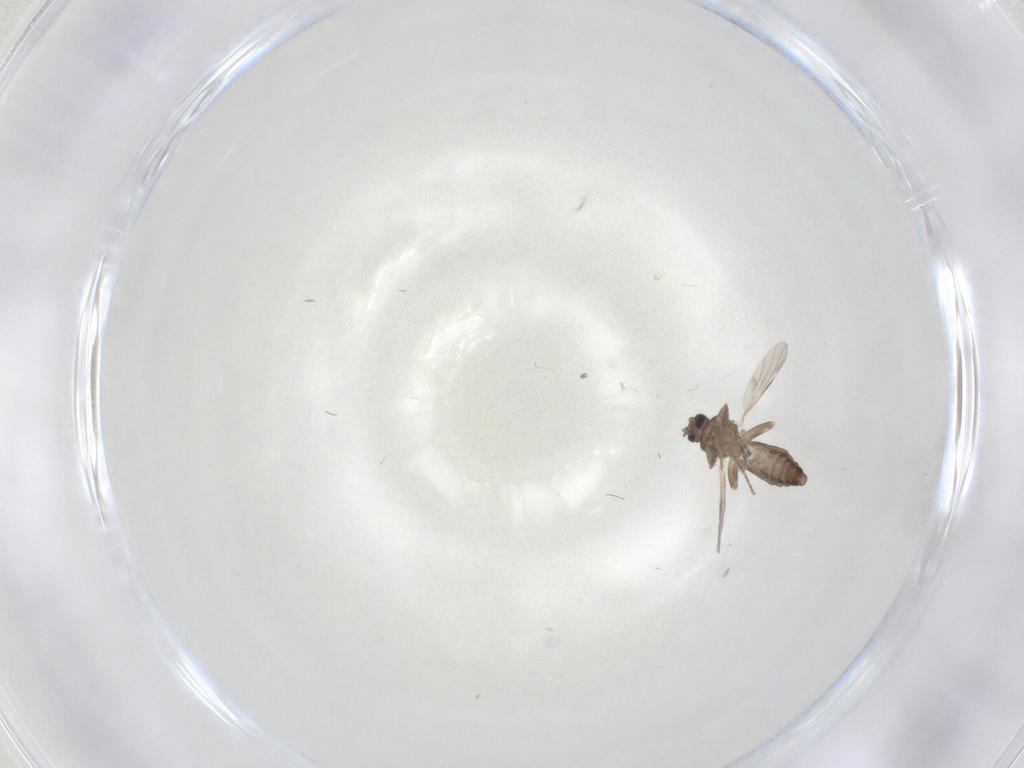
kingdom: Animalia
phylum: Arthropoda
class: Insecta
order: Diptera
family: Ceratopogonidae
